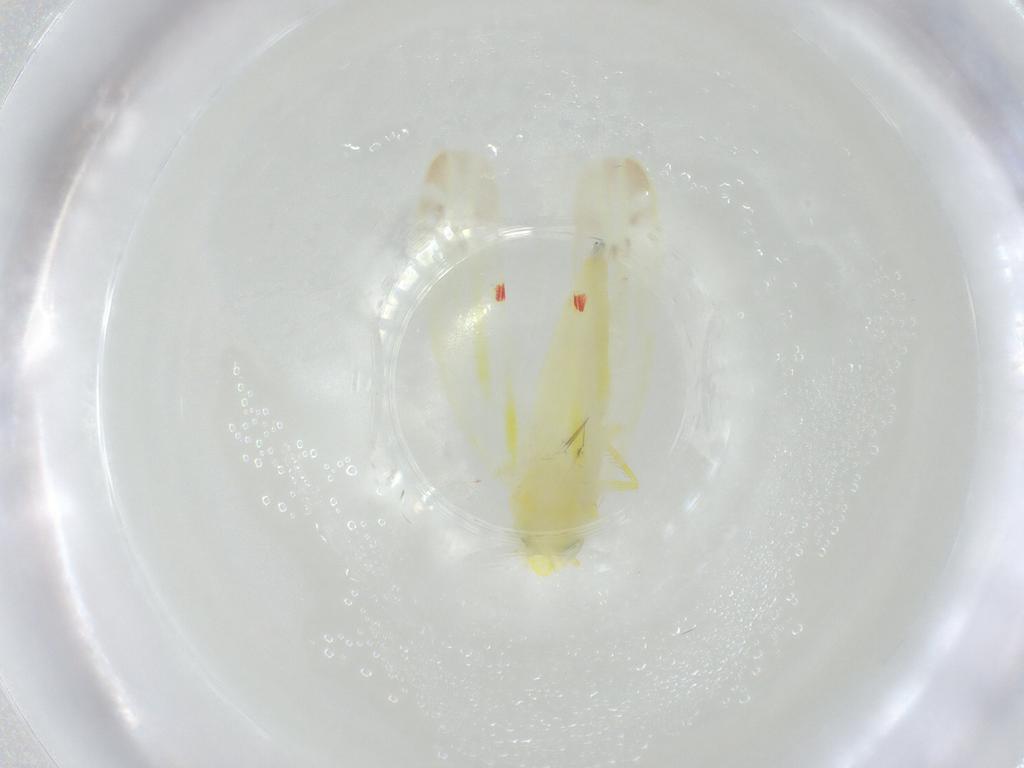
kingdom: Animalia
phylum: Arthropoda
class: Insecta
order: Hemiptera
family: Cicadellidae
